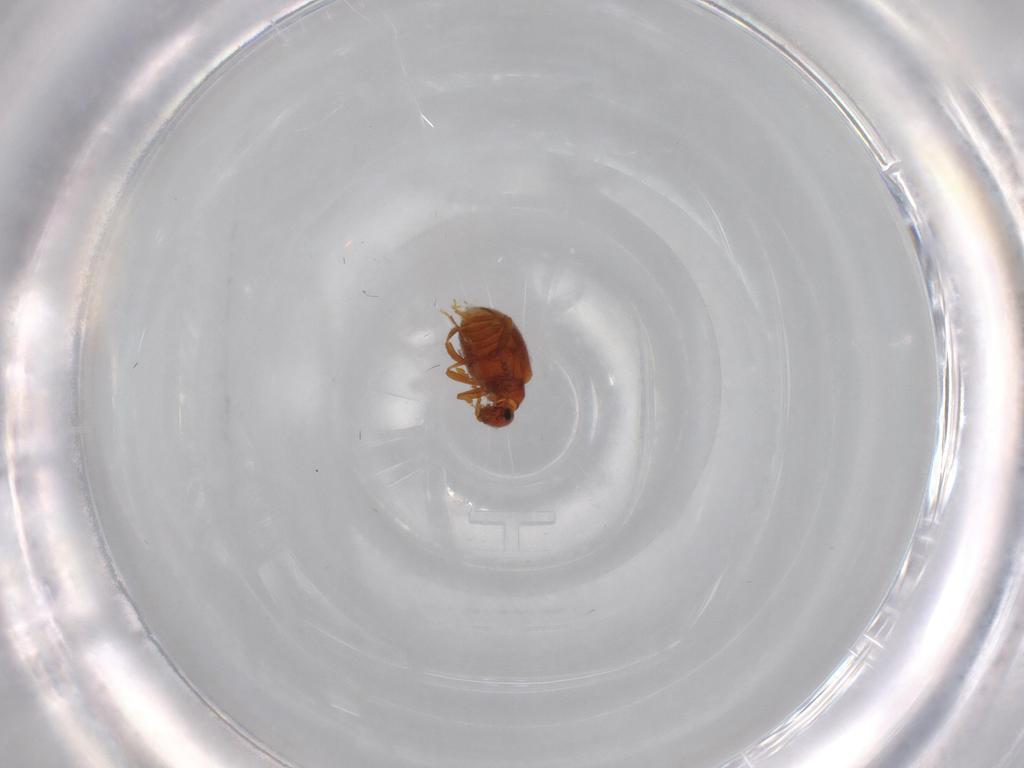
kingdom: Animalia
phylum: Arthropoda
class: Insecta
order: Coleoptera
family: Aderidae
